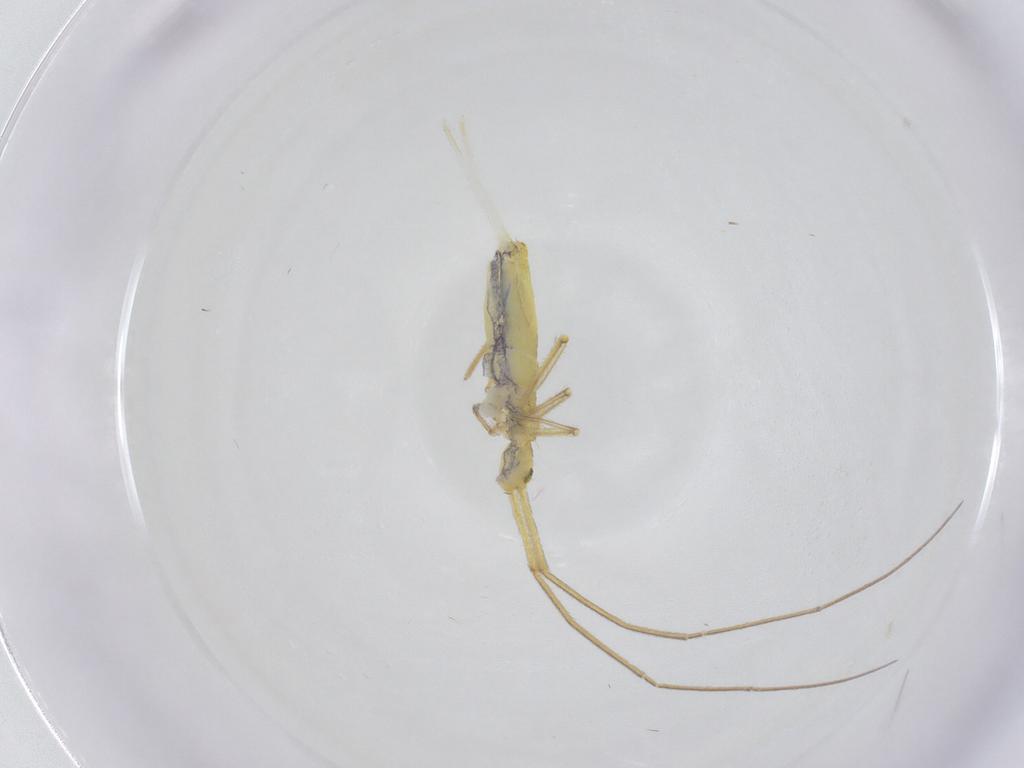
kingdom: Animalia
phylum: Arthropoda
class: Collembola
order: Entomobryomorpha
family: Entomobryidae
